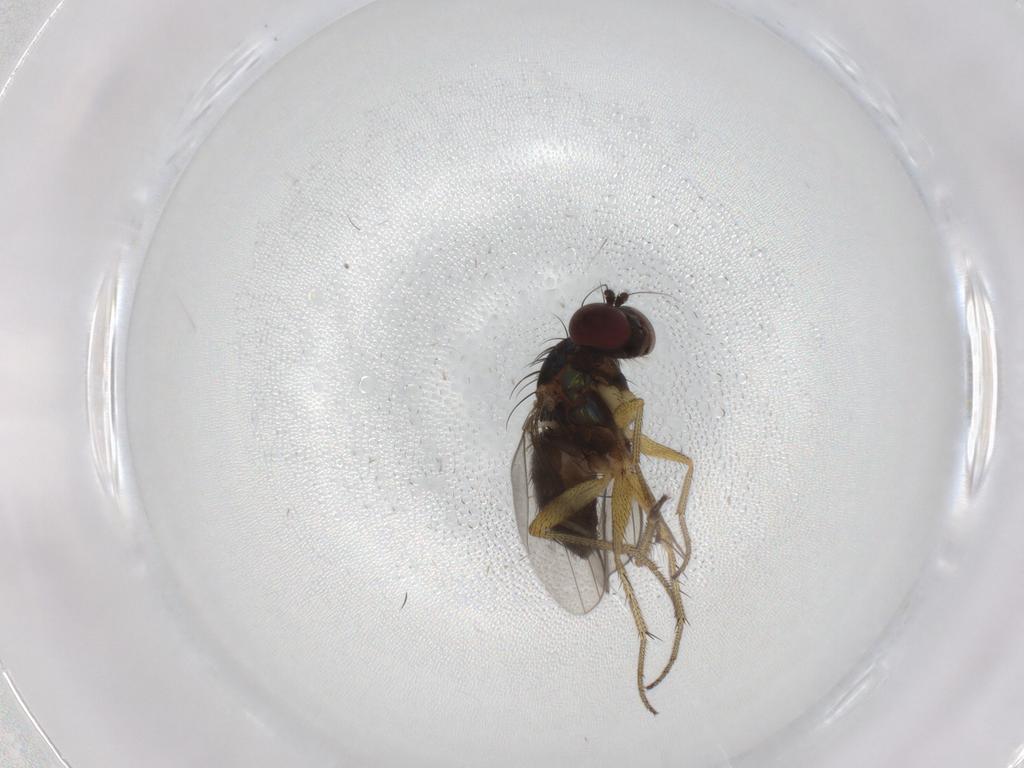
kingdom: Animalia
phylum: Arthropoda
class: Insecta
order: Diptera
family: Dolichopodidae
